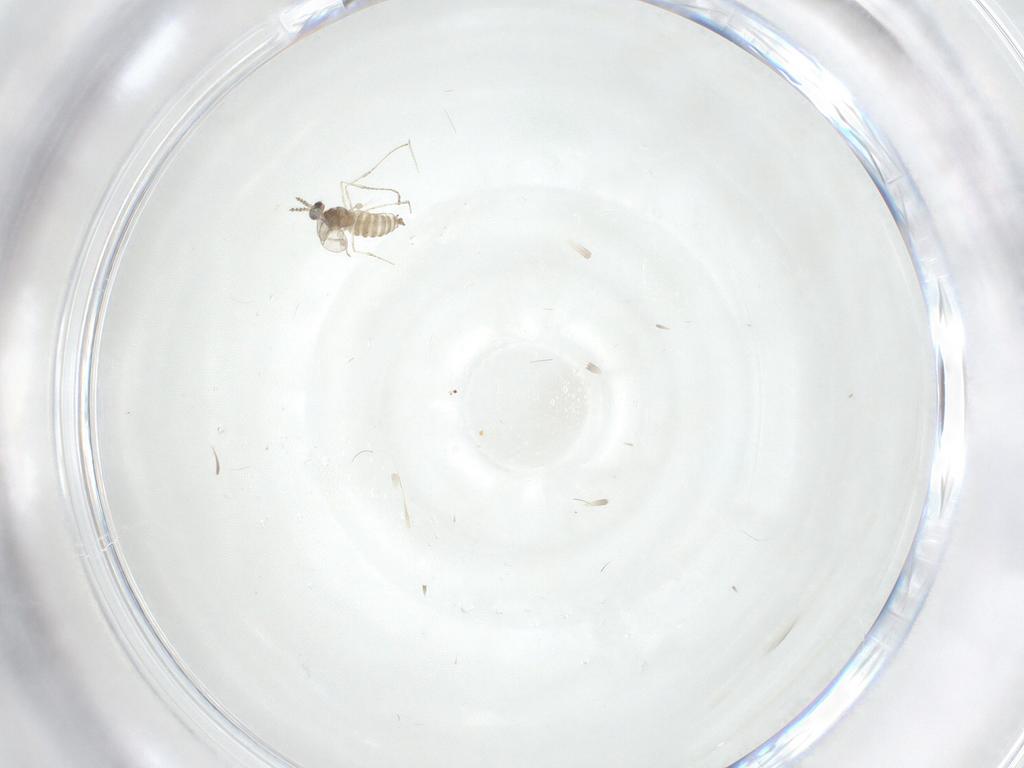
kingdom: Animalia
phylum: Arthropoda
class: Insecta
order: Diptera
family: Psychodidae
